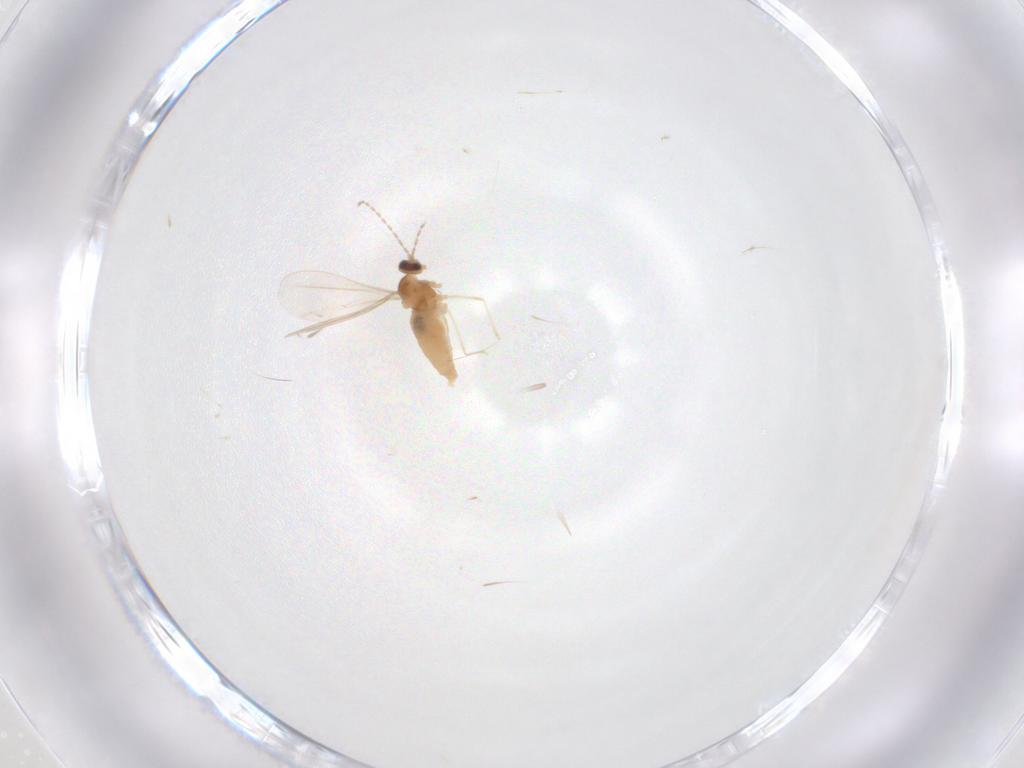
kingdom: Animalia
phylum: Arthropoda
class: Insecta
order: Diptera
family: Cecidomyiidae
